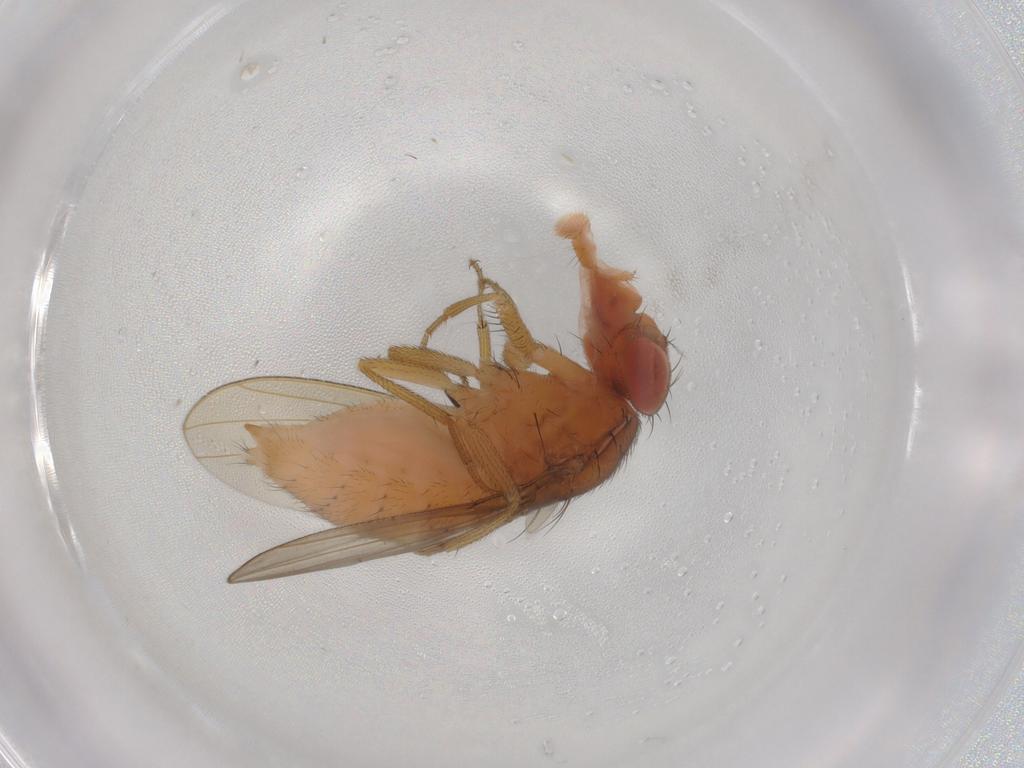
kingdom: Animalia
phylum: Arthropoda
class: Insecta
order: Diptera
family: Drosophilidae
